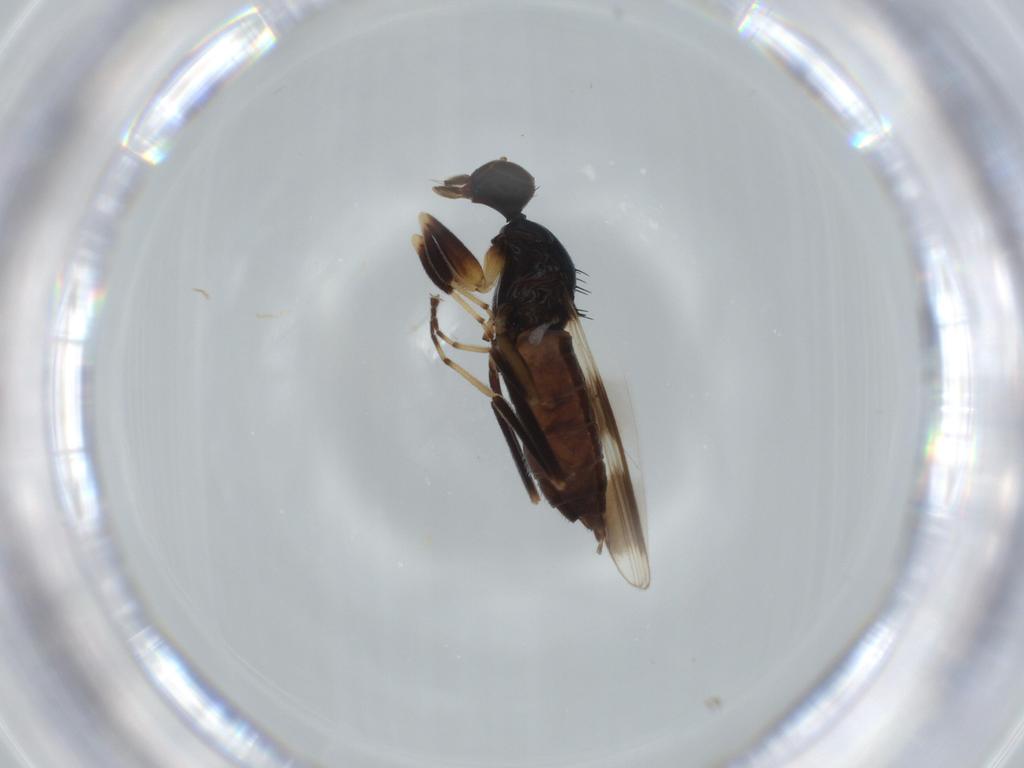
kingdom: Animalia
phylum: Arthropoda
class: Insecta
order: Diptera
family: Hybotidae
